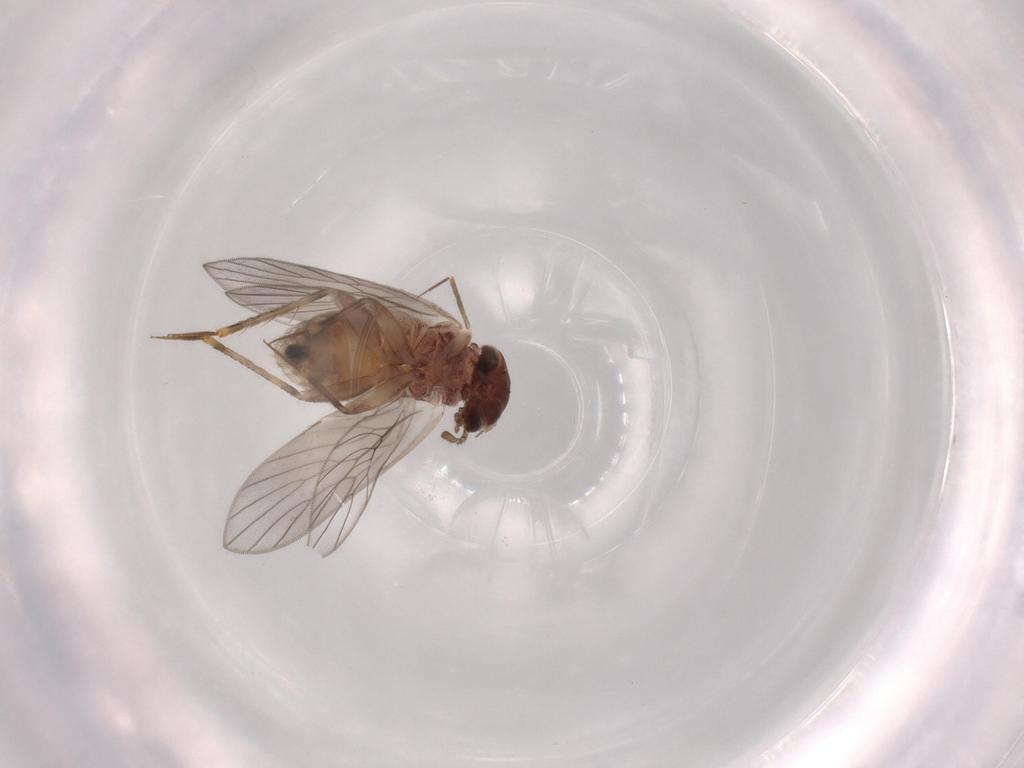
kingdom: Animalia
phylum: Arthropoda
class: Insecta
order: Psocodea
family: Lepidopsocidae
